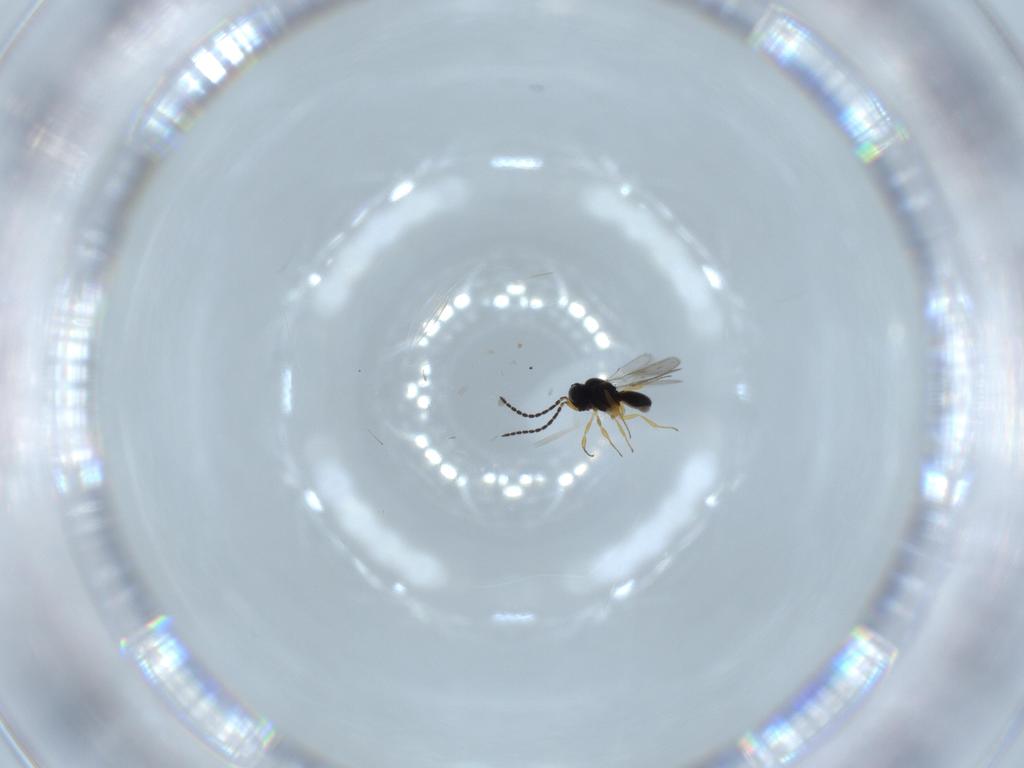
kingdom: Animalia
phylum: Arthropoda
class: Insecta
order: Hymenoptera
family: Scelionidae
